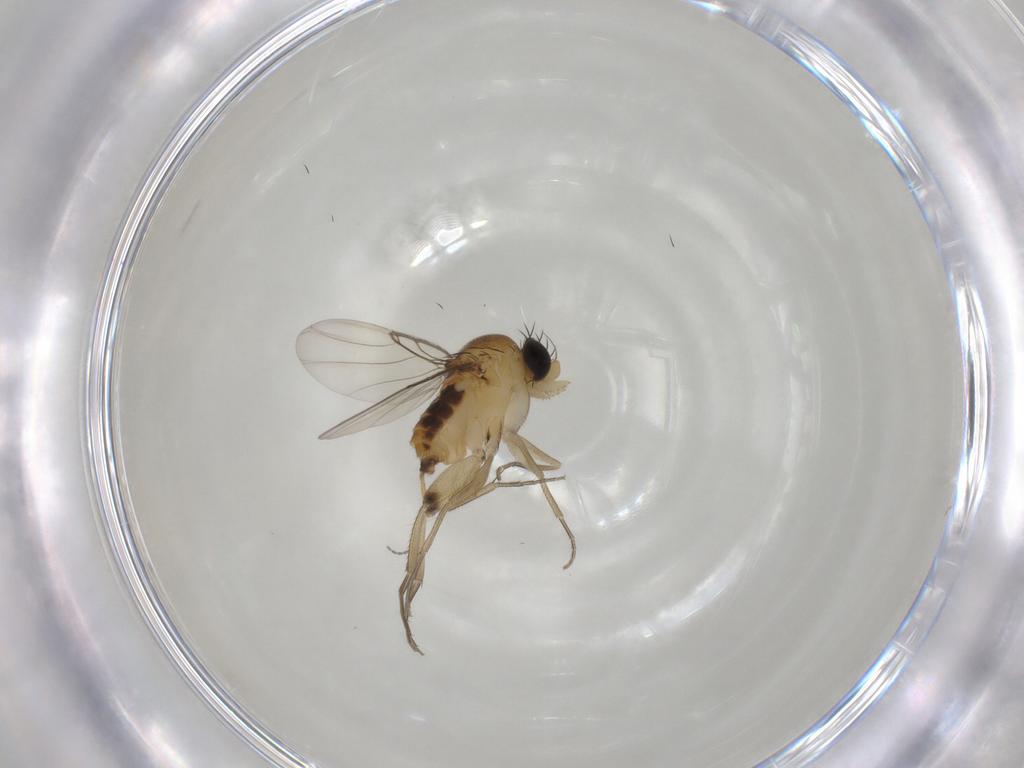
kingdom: Animalia
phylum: Arthropoda
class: Insecta
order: Diptera
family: Phoridae
